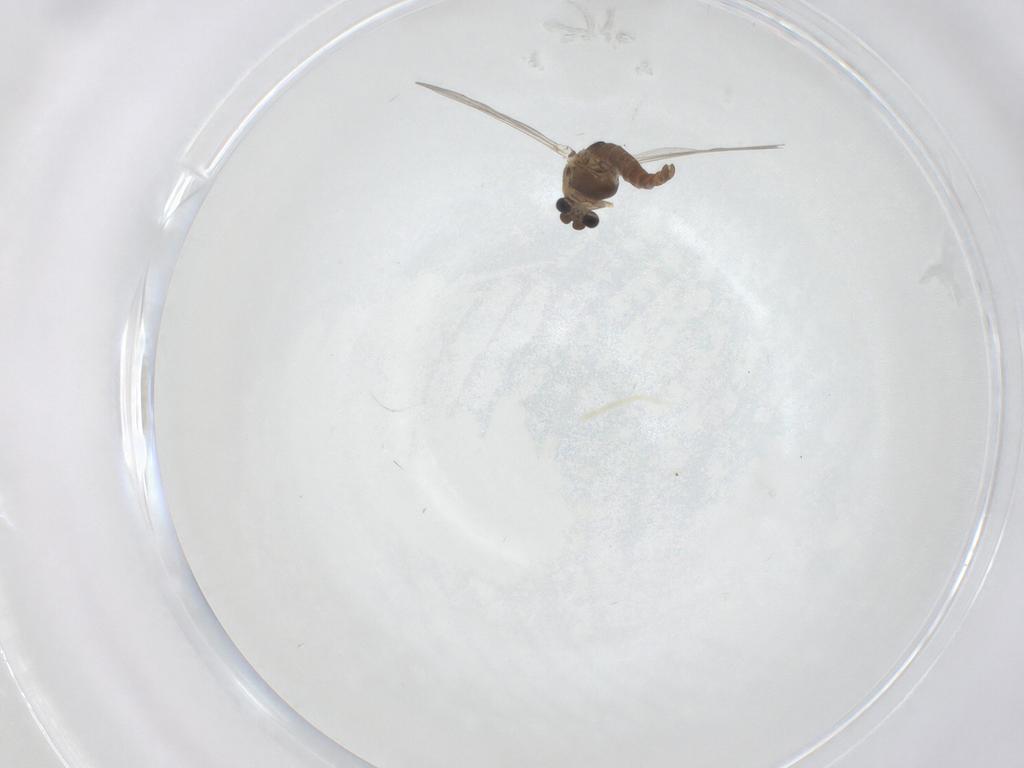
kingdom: Animalia
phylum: Arthropoda
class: Insecta
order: Diptera
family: Chironomidae
